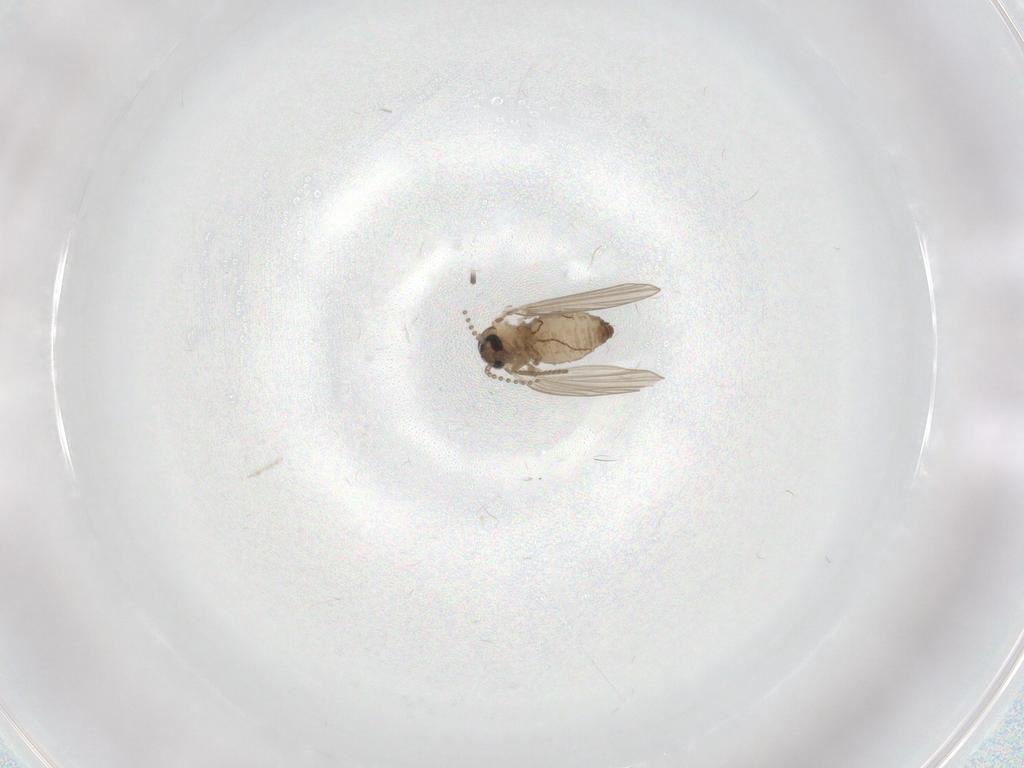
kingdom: Animalia
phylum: Arthropoda
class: Insecta
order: Diptera
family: Psychodidae
